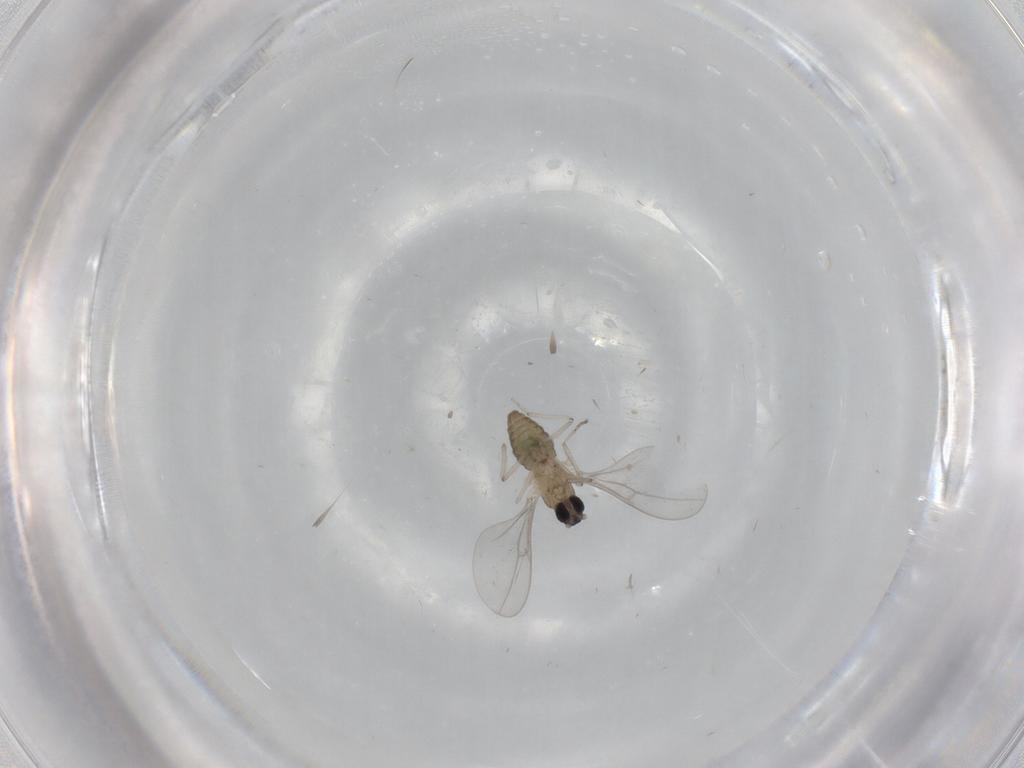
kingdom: Animalia
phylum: Arthropoda
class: Insecta
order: Diptera
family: Cecidomyiidae
